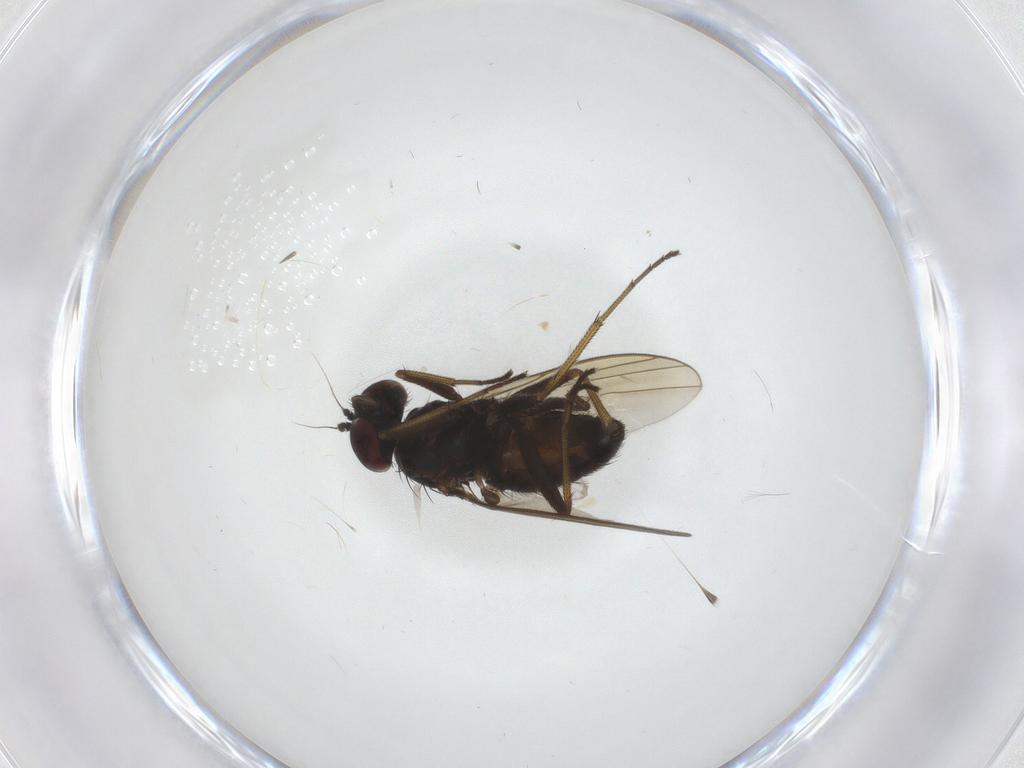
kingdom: Animalia
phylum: Arthropoda
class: Insecta
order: Diptera
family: Dolichopodidae
